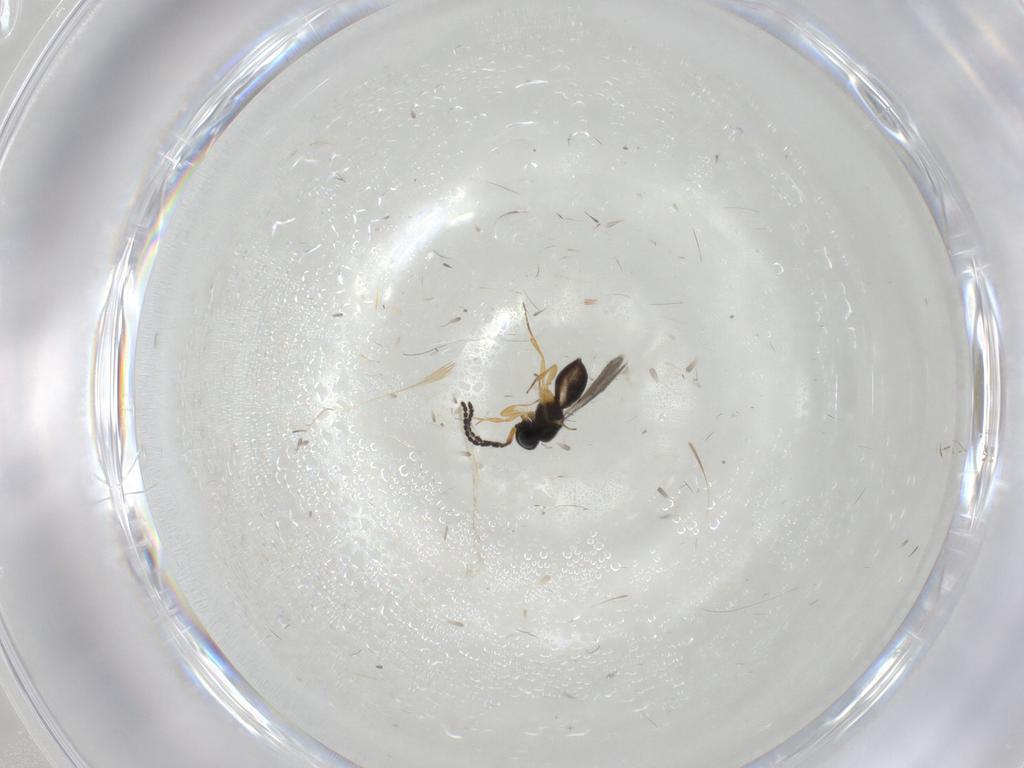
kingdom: Animalia
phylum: Arthropoda
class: Insecta
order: Hymenoptera
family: Scelionidae
